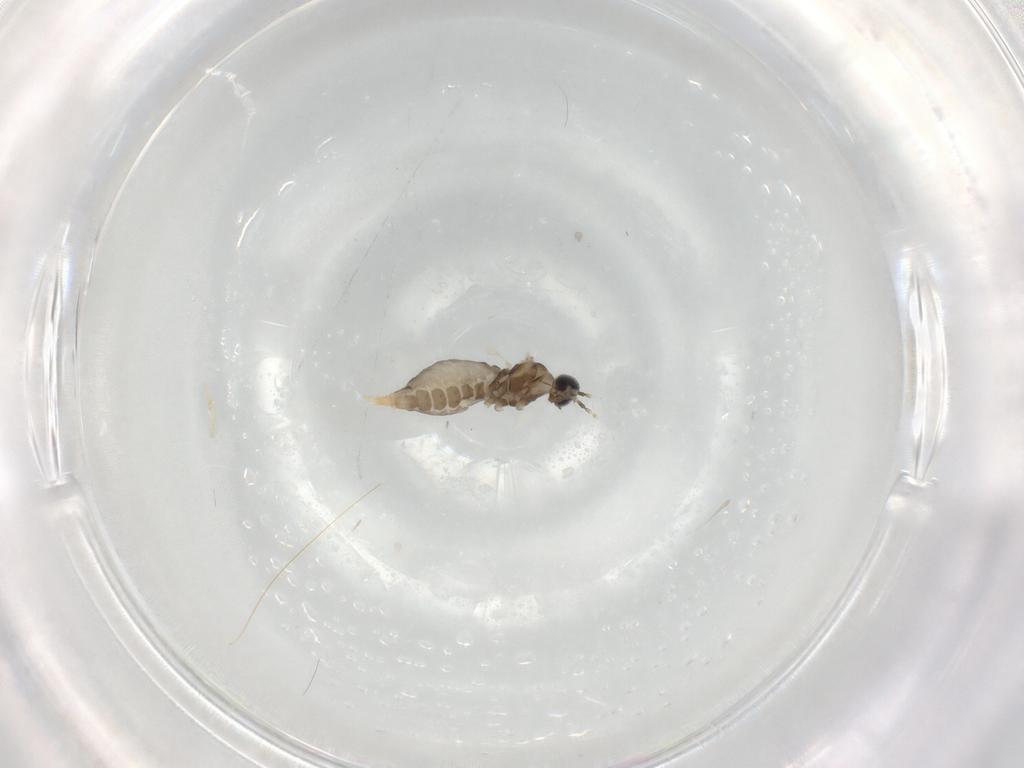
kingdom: Animalia
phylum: Arthropoda
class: Insecta
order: Diptera
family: Cecidomyiidae
